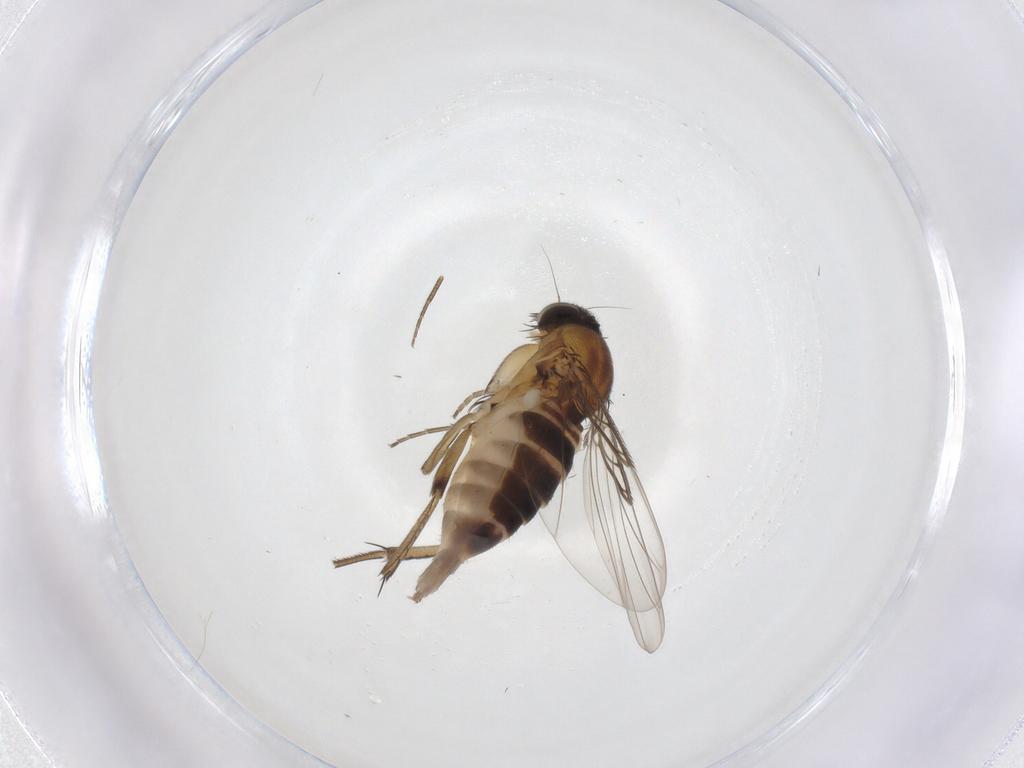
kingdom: Animalia
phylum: Arthropoda
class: Insecta
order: Diptera
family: Phoridae
